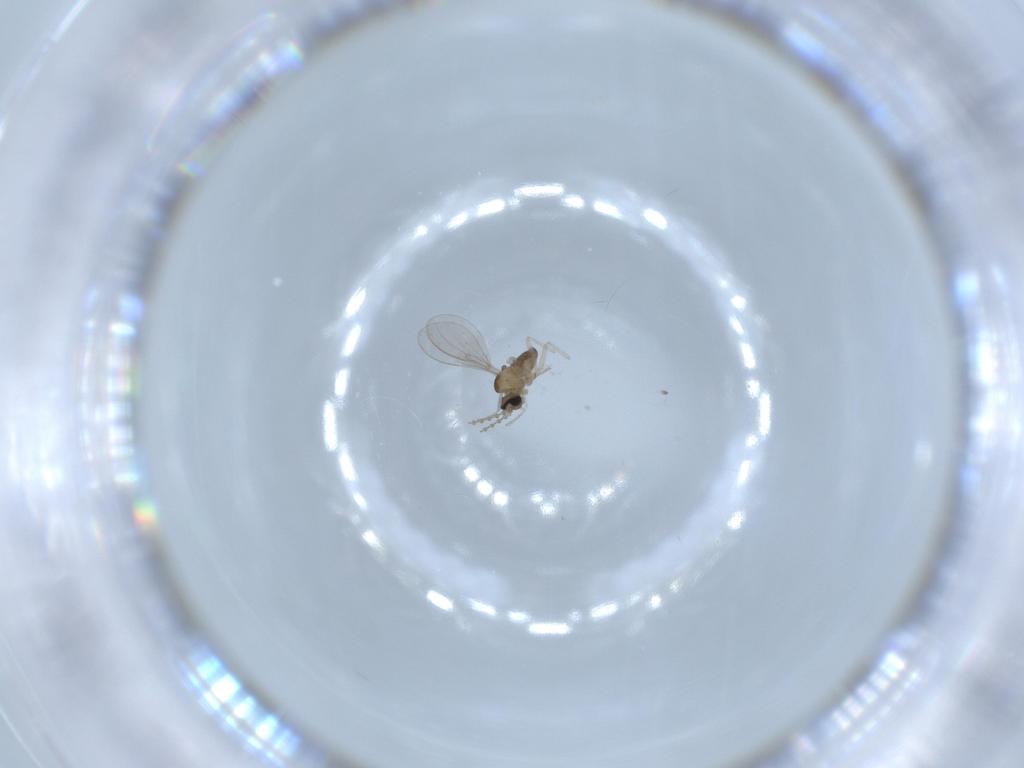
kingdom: Animalia
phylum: Arthropoda
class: Insecta
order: Diptera
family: Cecidomyiidae
